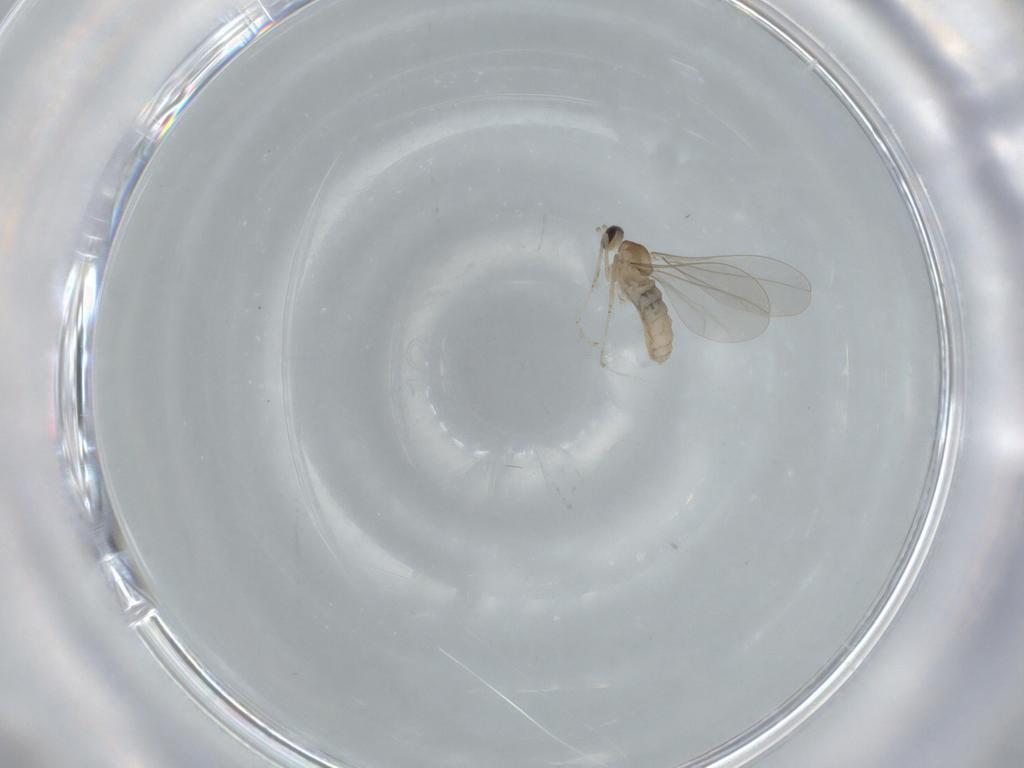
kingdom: Animalia
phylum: Arthropoda
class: Insecta
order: Diptera
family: Cecidomyiidae
